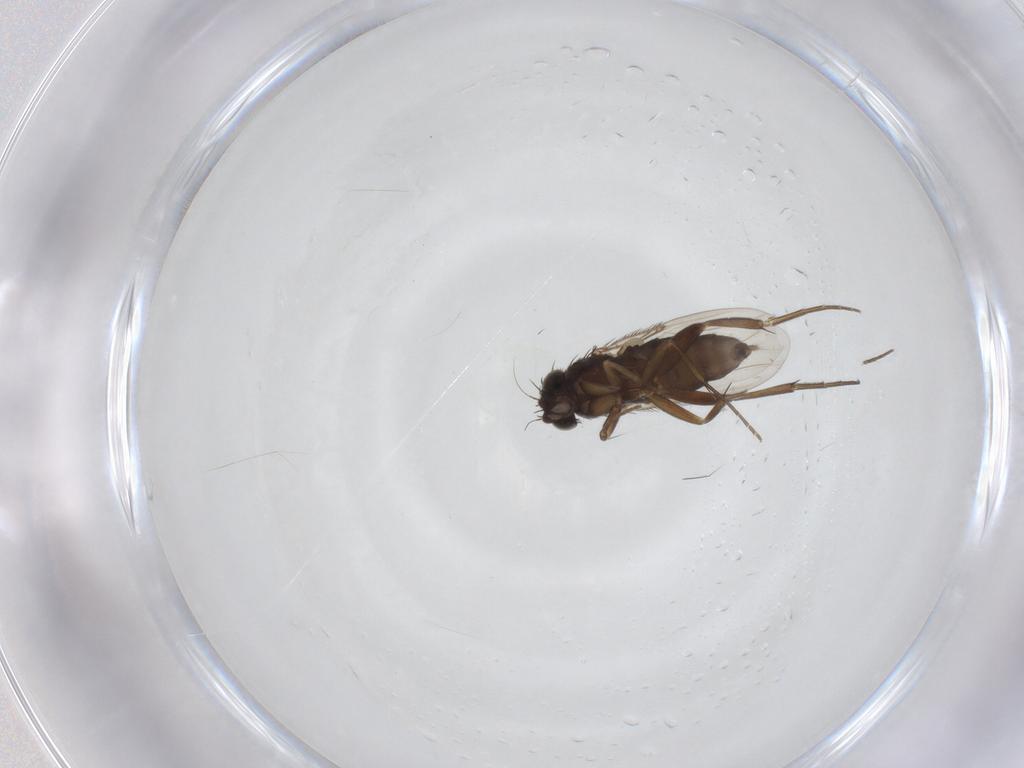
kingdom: Animalia
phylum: Arthropoda
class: Insecta
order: Diptera
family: Phoridae
